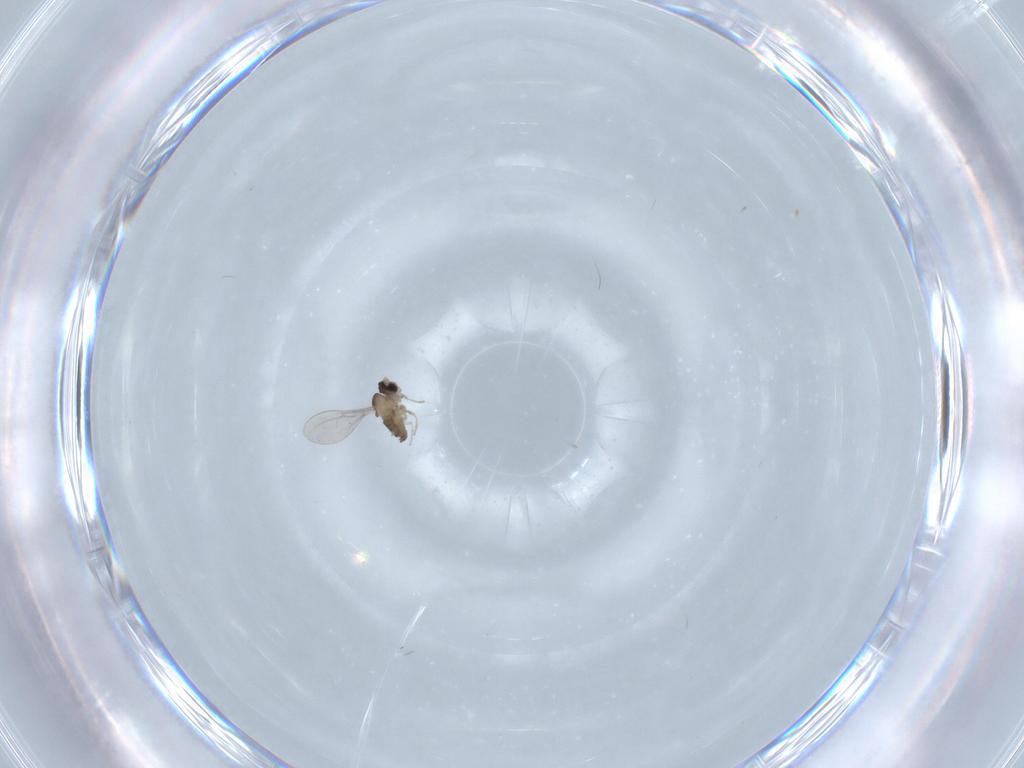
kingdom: Animalia
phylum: Arthropoda
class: Insecta
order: Diptera
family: Cecidomyiidae
